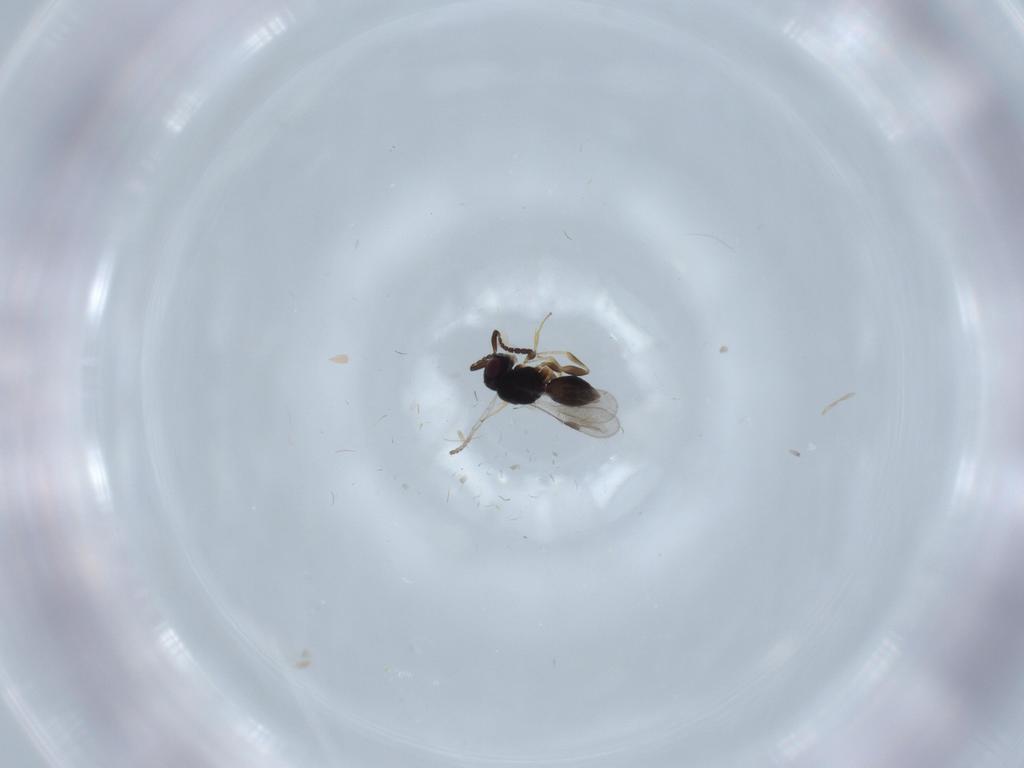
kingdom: Animalia
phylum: Arthropoda
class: Insecta
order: Hymenoptera
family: Ceraphronidae
